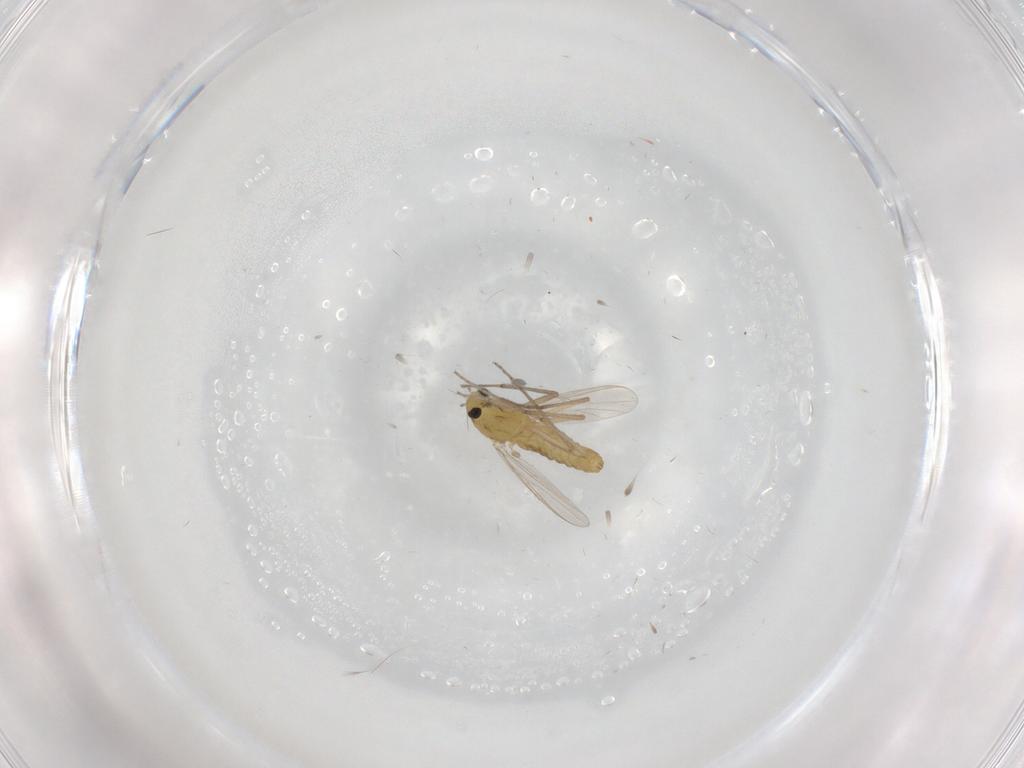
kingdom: Animalia
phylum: Arthropoda
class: Insecta
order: Diptera
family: Chironomidae
